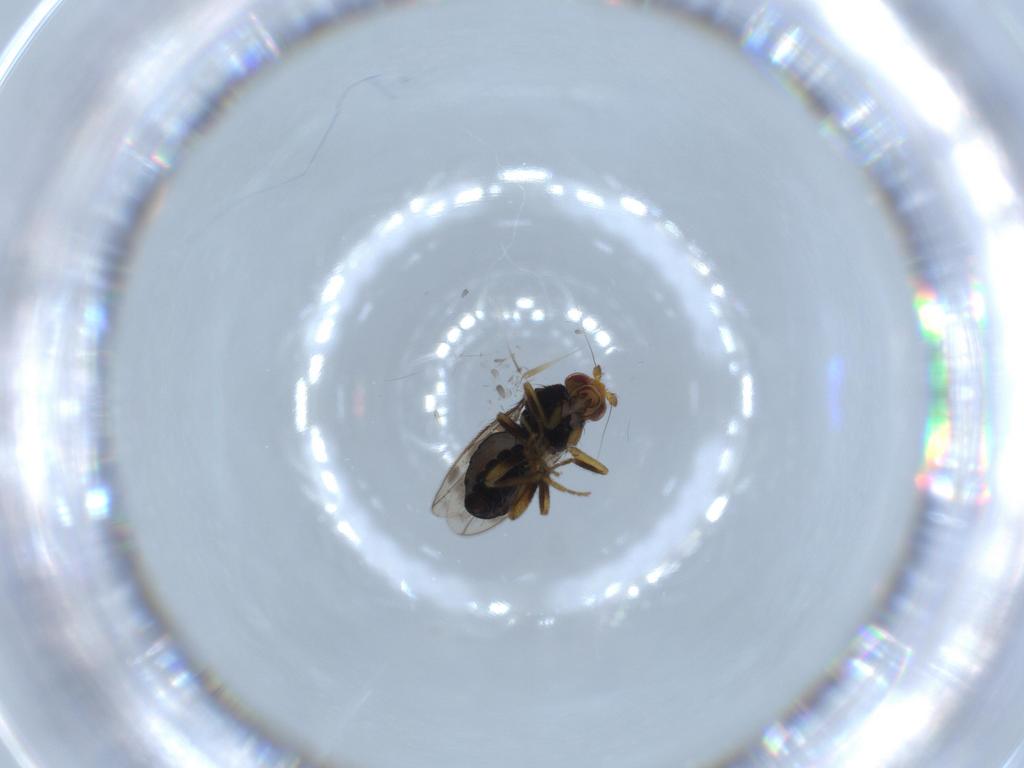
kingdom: Animalia
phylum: Arthropoda
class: Insecta
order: Diptera
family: Sphaeroceridae
